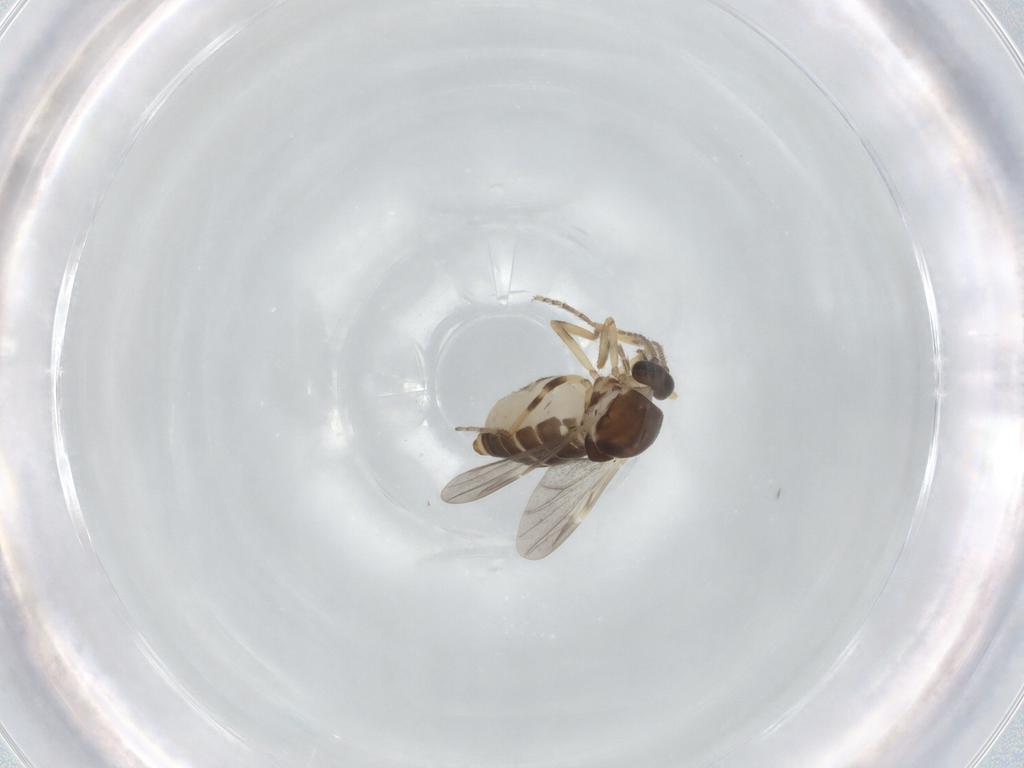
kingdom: Animalia
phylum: Arthropoda
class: Insecta
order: Diptera
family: Ceratopogonidae
